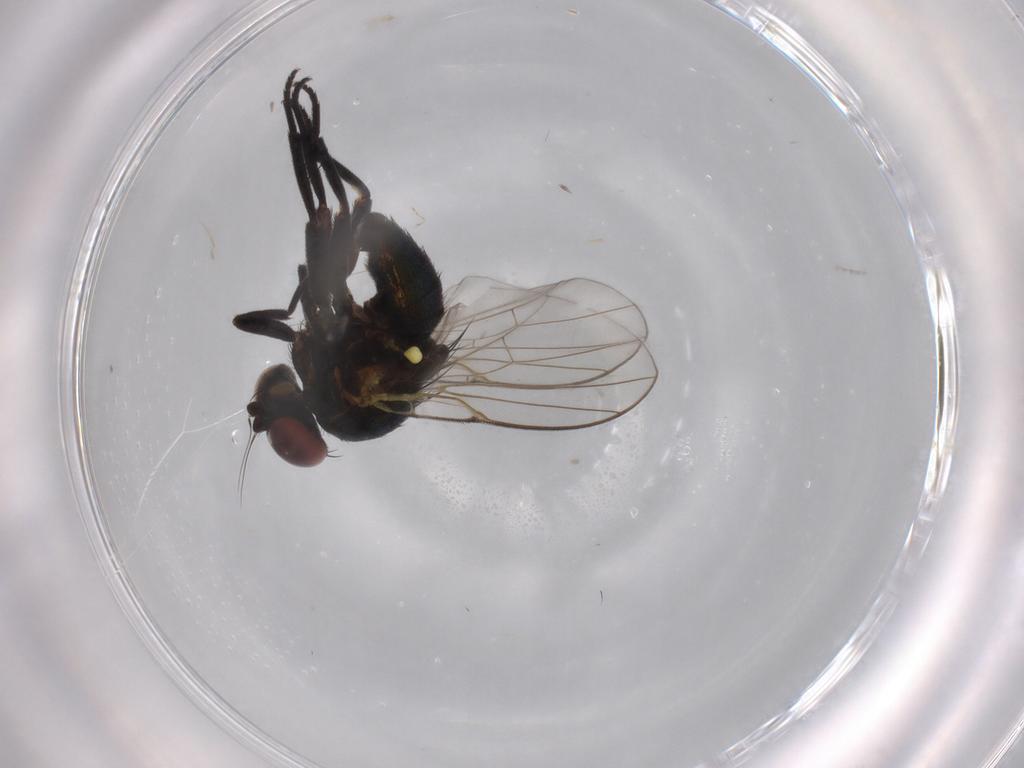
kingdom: Animalia
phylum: Arthropoda
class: Insecta
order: Diptera
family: Agromyzidae
